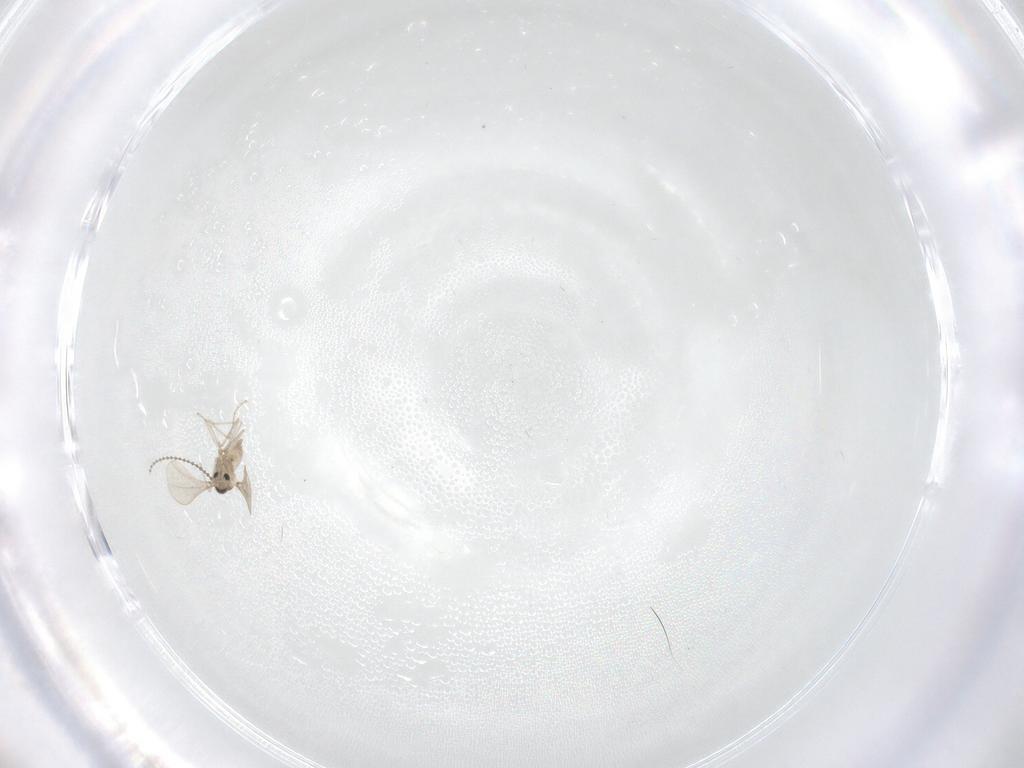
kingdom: Animalia
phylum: Arthropoda
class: Insecta
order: Diptera
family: Cecidomyiidae
